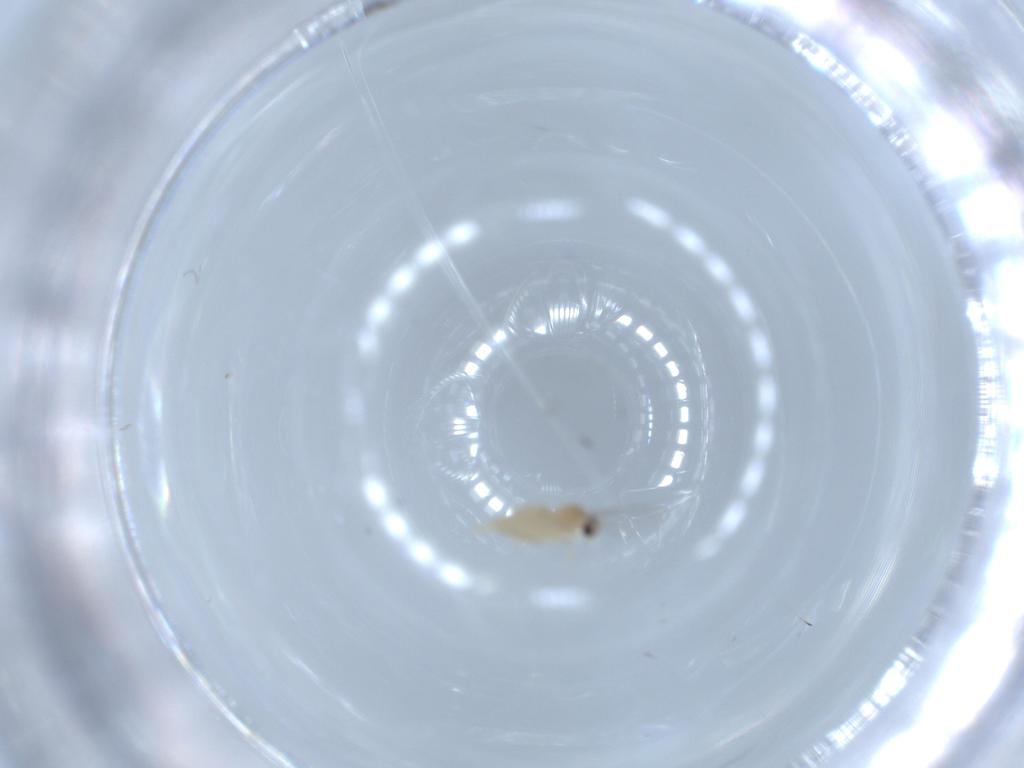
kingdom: Animalia
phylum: Arthropoda
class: Insecta
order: Diptera
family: Cecidomyiidae
